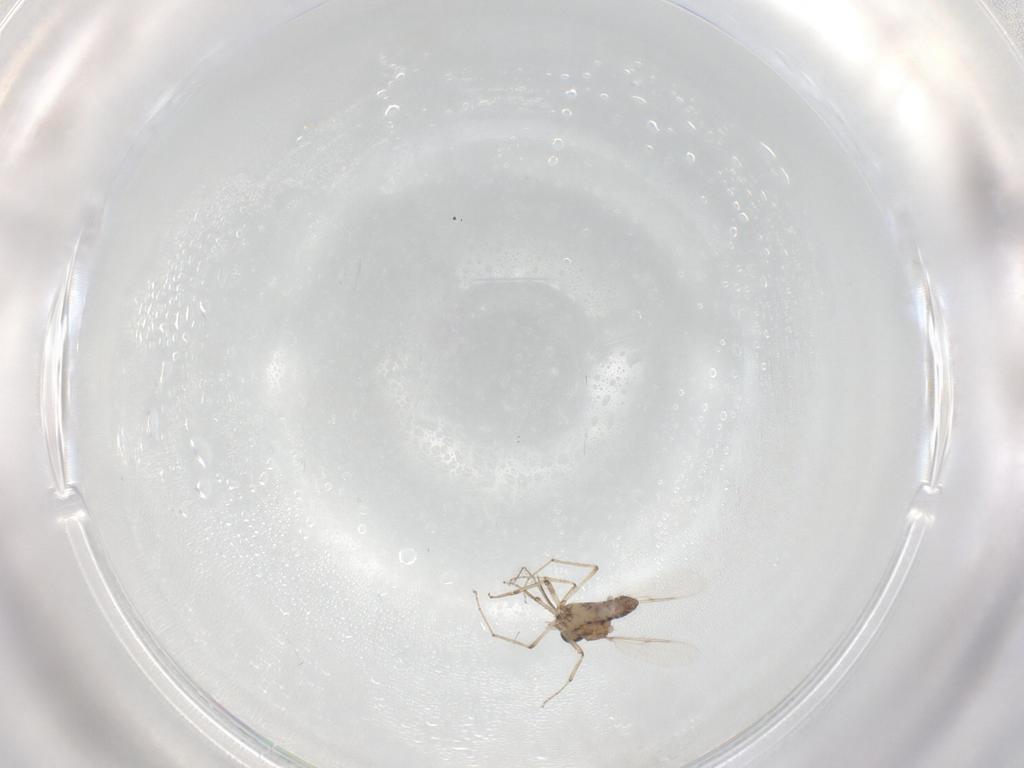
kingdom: Animalia
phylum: Arthropoda
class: Insecta
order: Diptera
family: Ceratopogonidae
